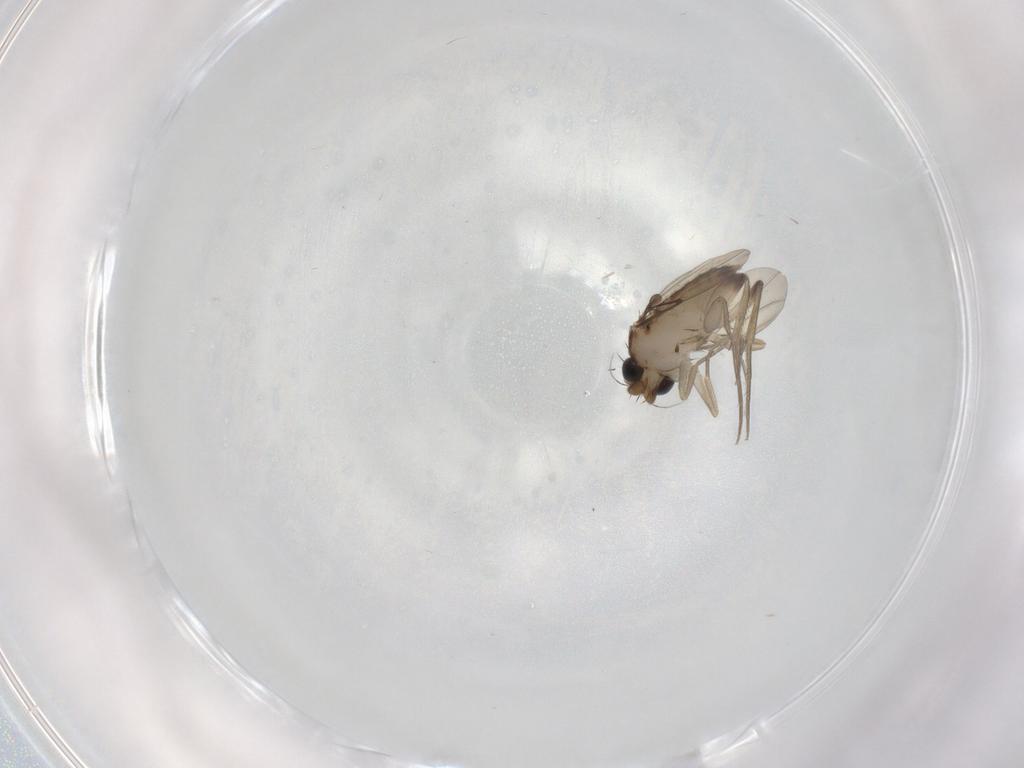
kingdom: Animalia
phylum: Arthropoda
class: Insecta
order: Diptera
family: Phoridae
